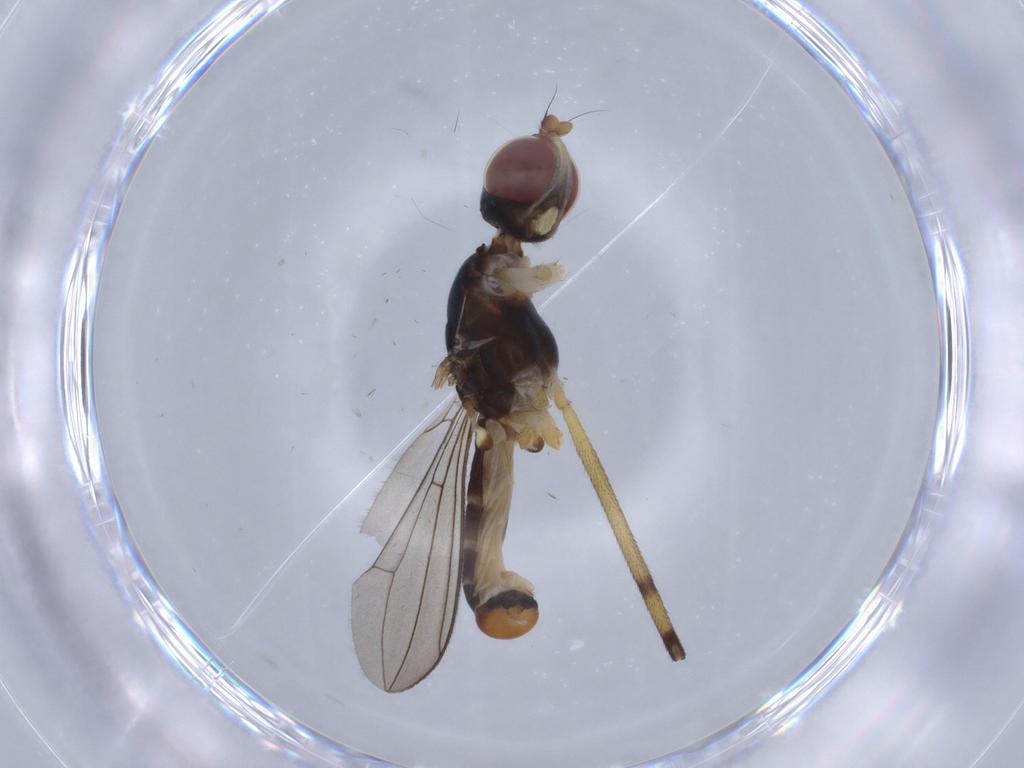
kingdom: Animalia
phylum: Arthropoda
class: Insecta
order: Diptera
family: Micropezidae
